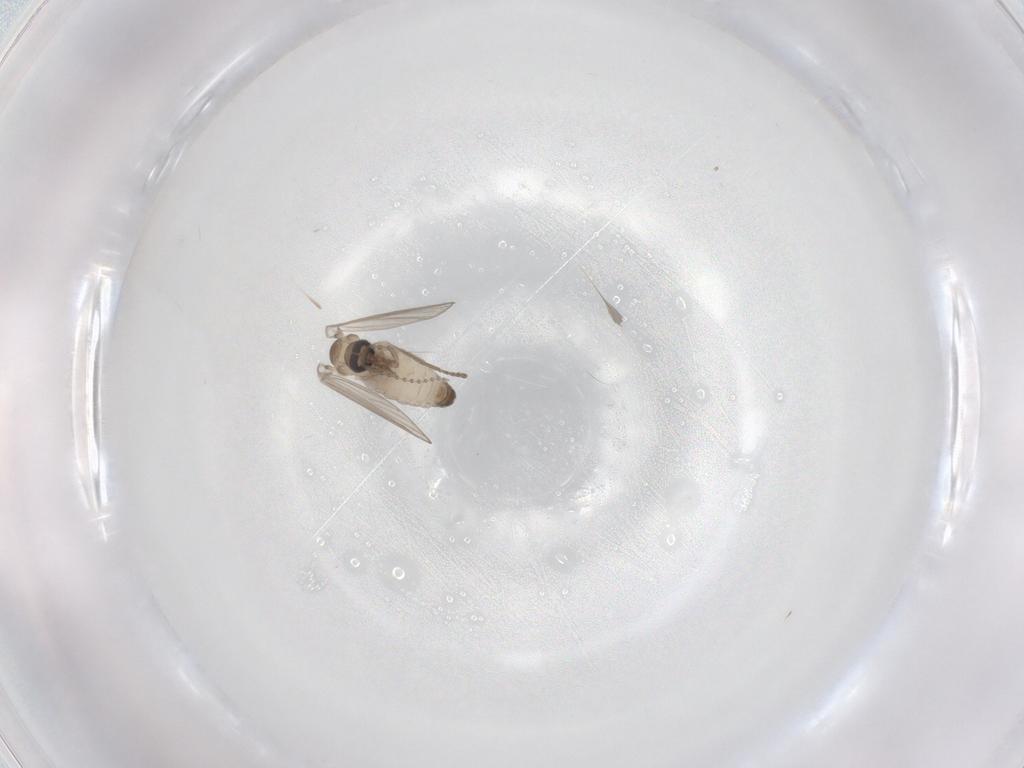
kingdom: Animalia
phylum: Arthropoda
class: Insecta
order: Diptera
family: Psychodidae
